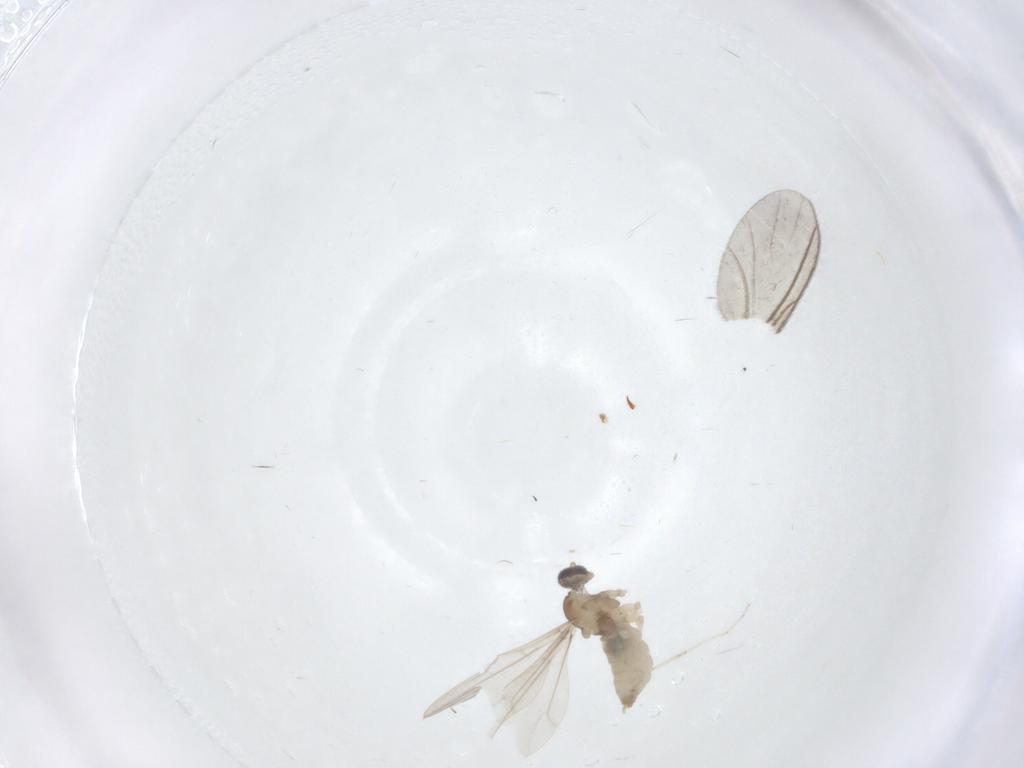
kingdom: Animalia
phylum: Arthropoda
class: Insecta
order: Diptera
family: Cecidomyiidae
